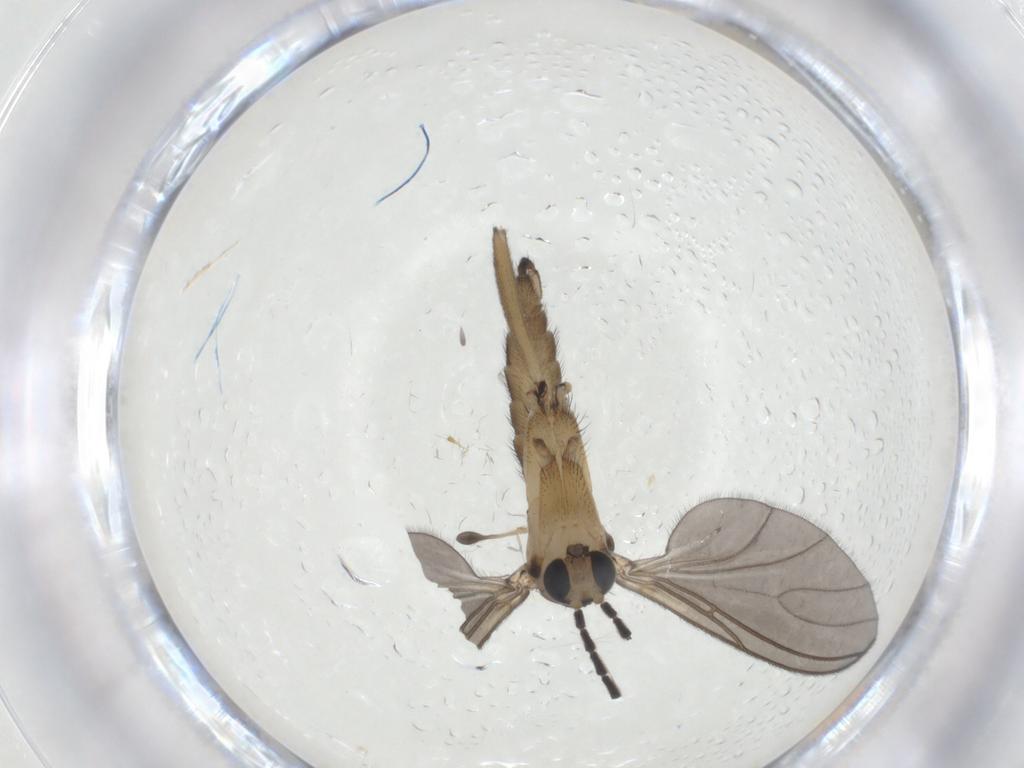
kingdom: Animalia
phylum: Arthropoda
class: Insecta
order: Diptera
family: Sciaridae
